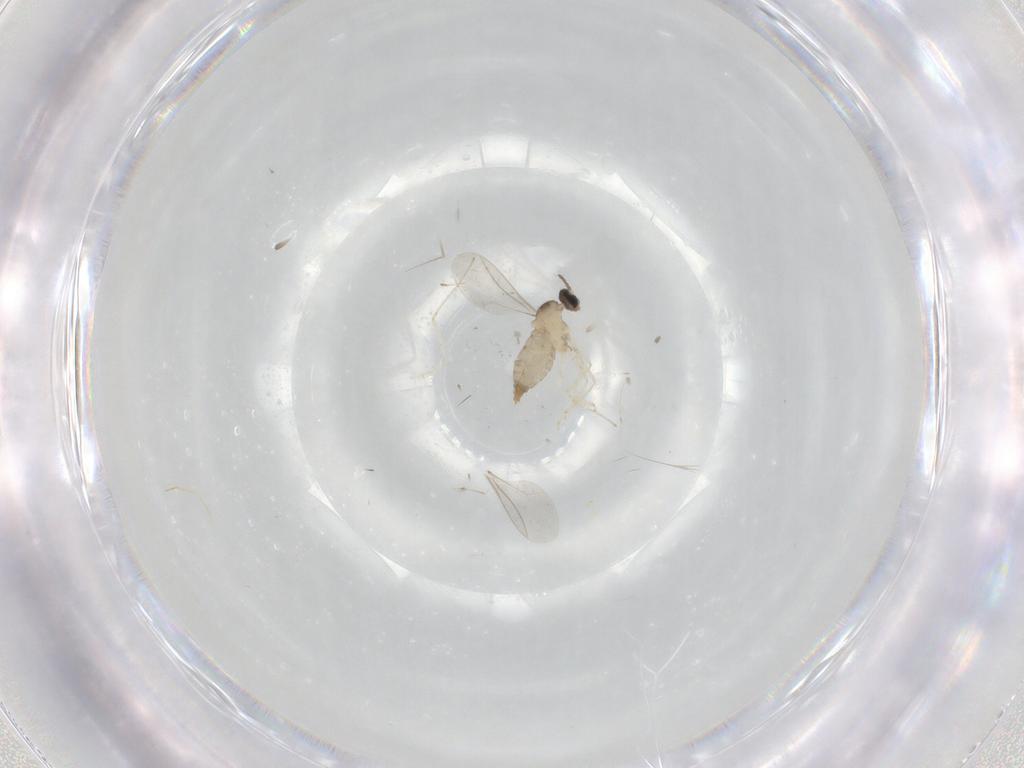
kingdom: Animalia
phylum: Arthropoda
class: Insecta
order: Diptera
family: Cecidomyiidae
